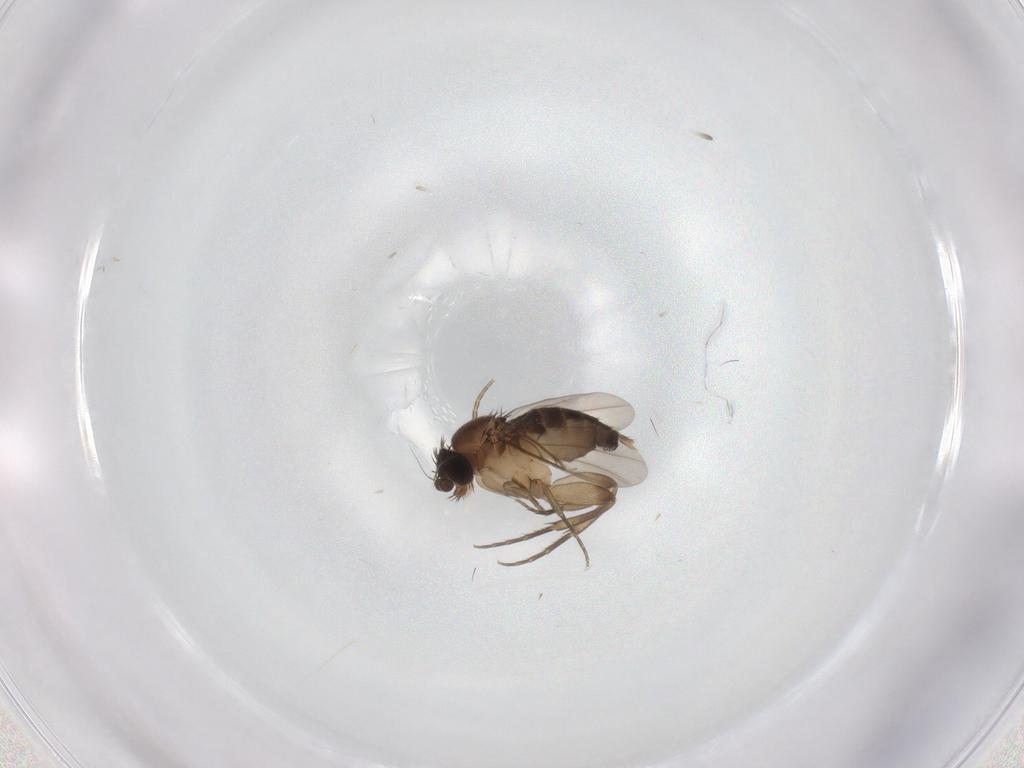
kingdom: Animalia
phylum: Arthropoda
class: Insecta
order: Diptera
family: Phoridae
